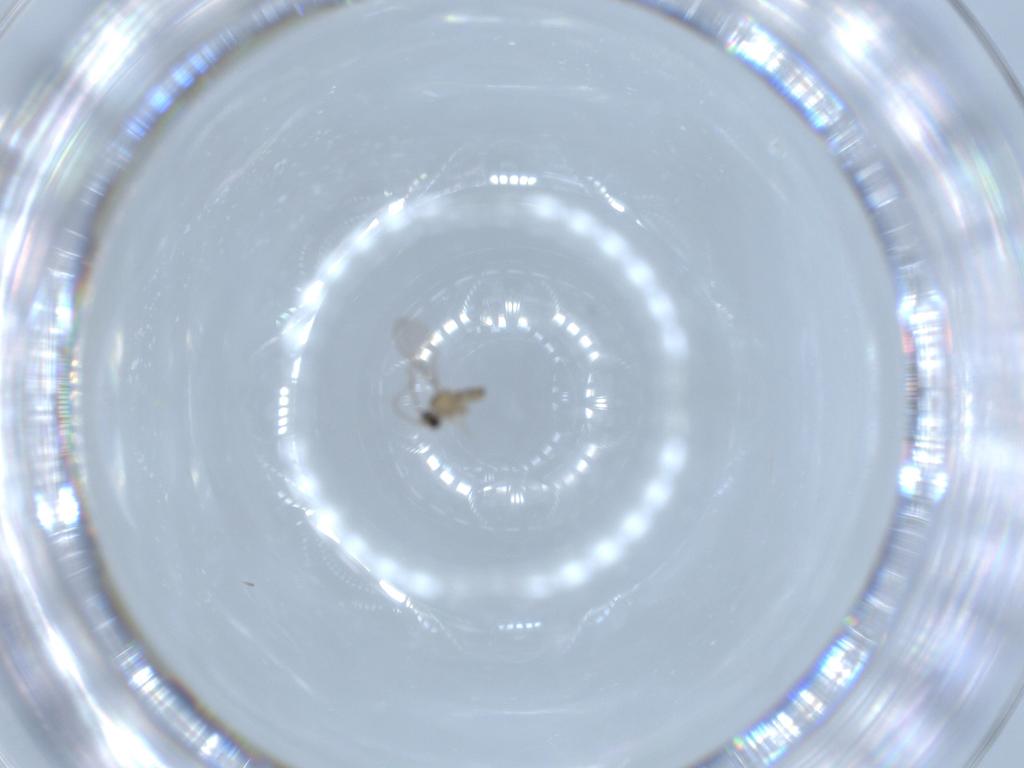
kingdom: Animalia
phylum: Arthropoda
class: Insecta
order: Diptera
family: Cecidomyiidae
